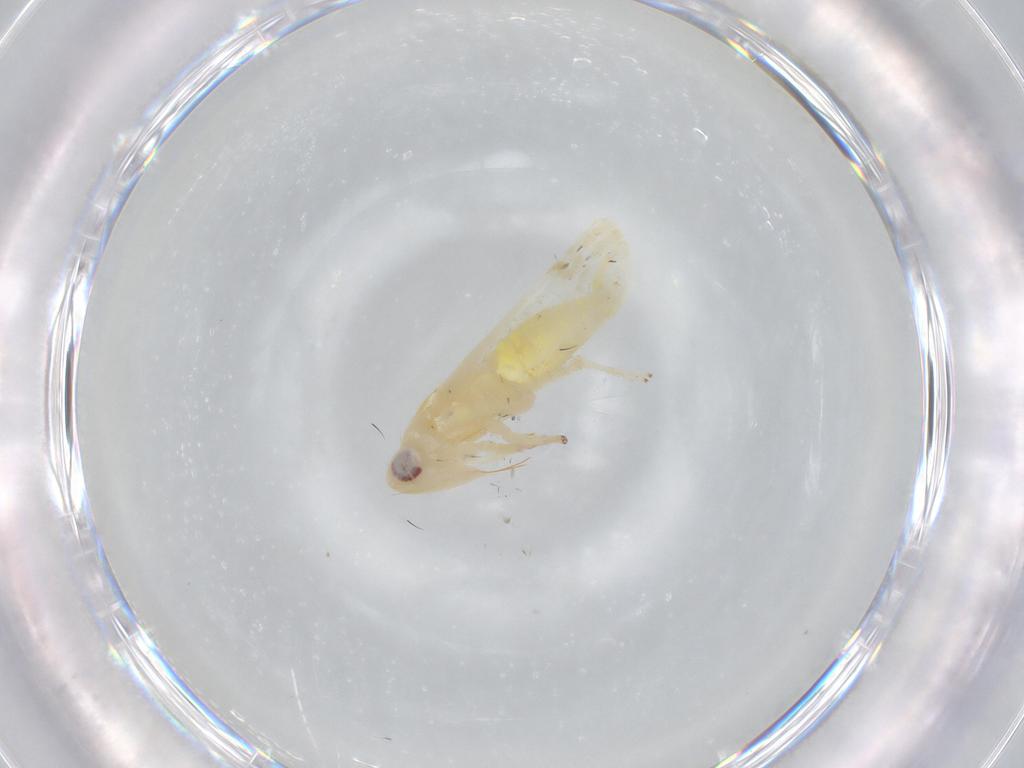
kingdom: Animalia
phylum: Arthropoda
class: Insecta
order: Hemiptera
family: Cicadellidae
